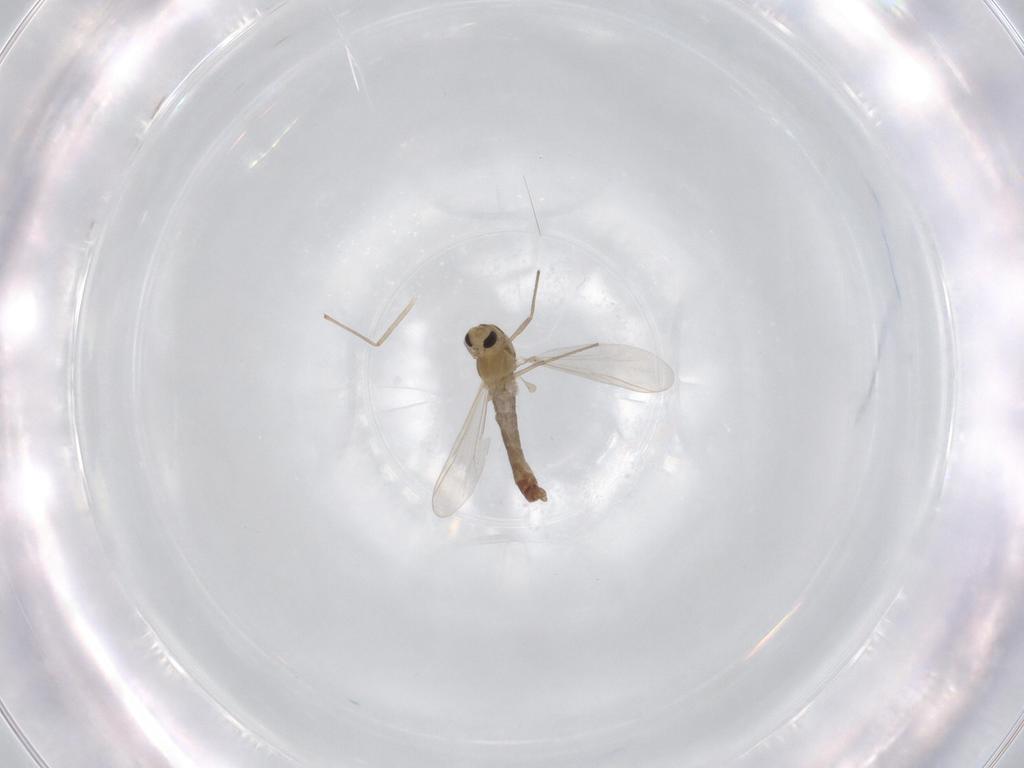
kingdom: Animalia
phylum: Arthropoda
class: Insecta
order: Diptera
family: Chironomidae
